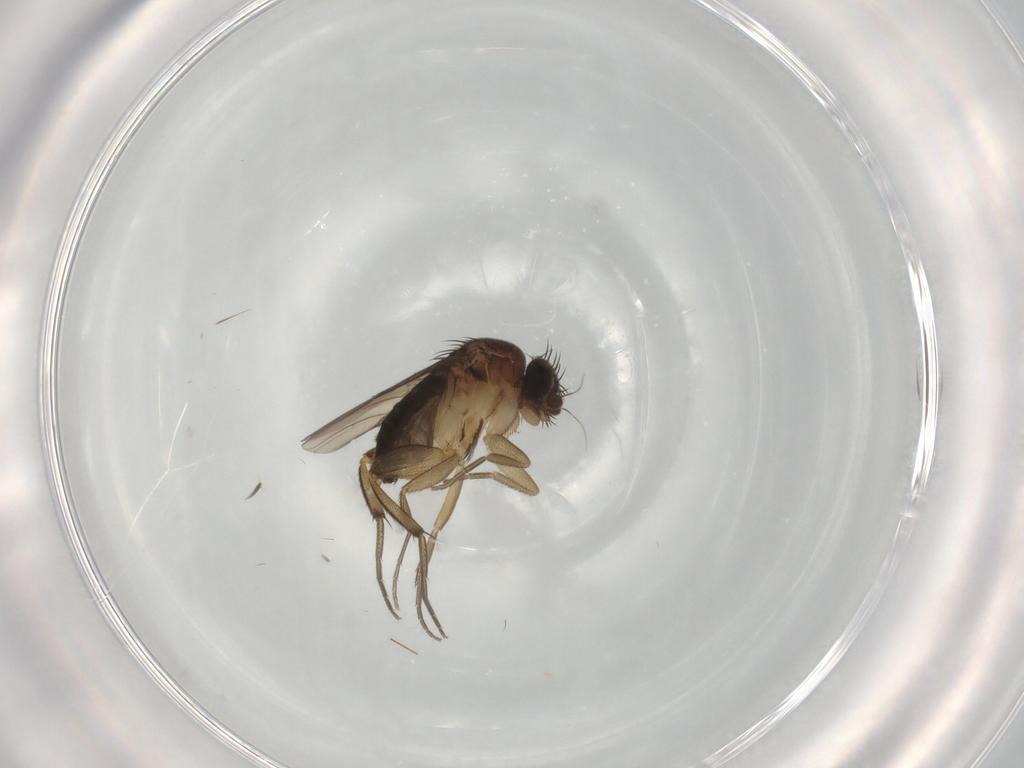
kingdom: Animalia
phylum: Arthropoda
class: Insecta
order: Diptera
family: Phoridae
